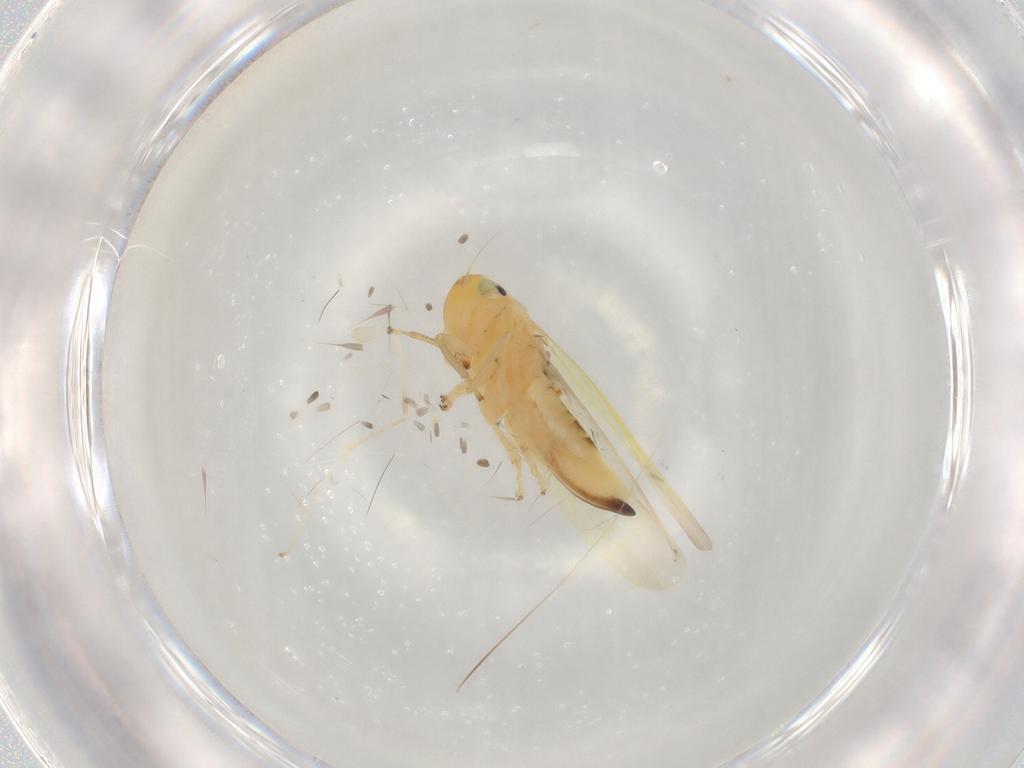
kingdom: Animalia
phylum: Arthropoda
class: Insecta
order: Hemiptera
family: Cicadellidae
